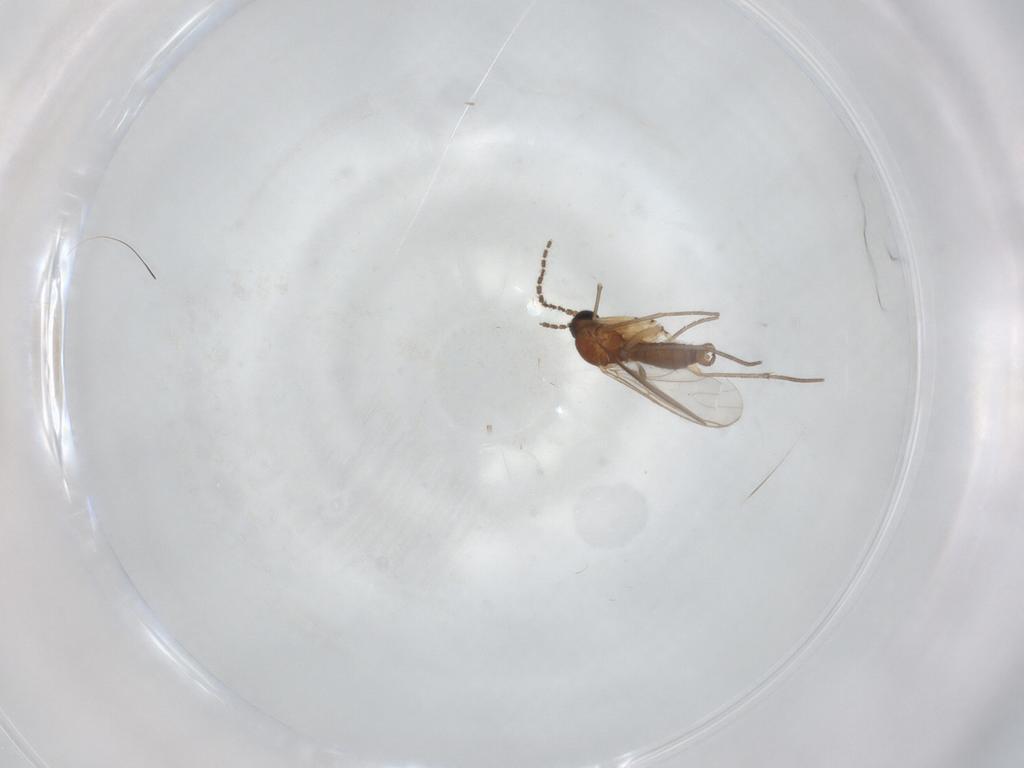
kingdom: Animalia
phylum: Arthropoda
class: Insecta
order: Diptera
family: Sciaridae
